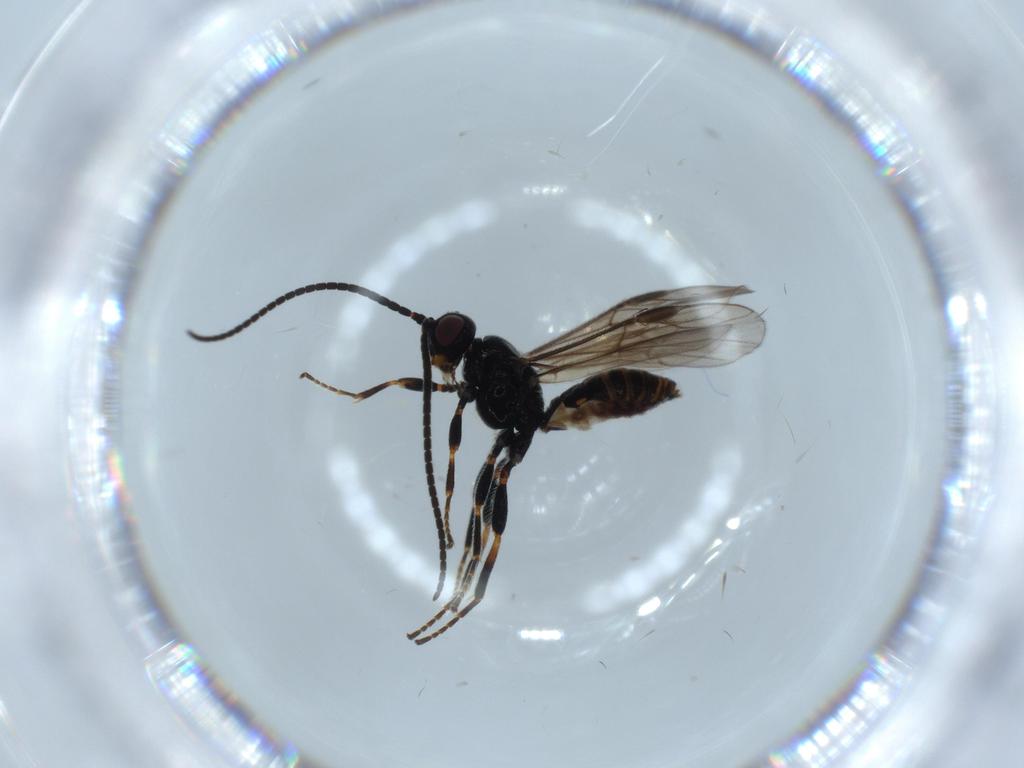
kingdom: Animalia
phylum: Arthropoda
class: Insecta
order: Hymenoptera
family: Braconidae
